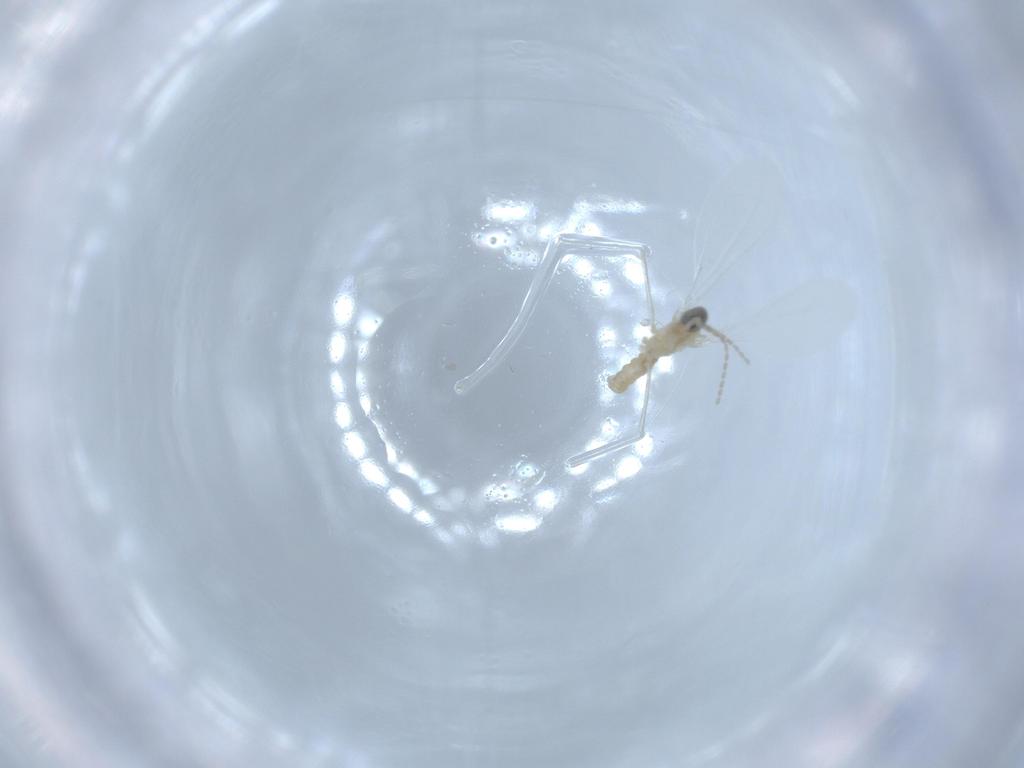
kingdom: Animalia
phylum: Arthropoda
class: Insecta
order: Diptera
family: Cecidomyiidae
